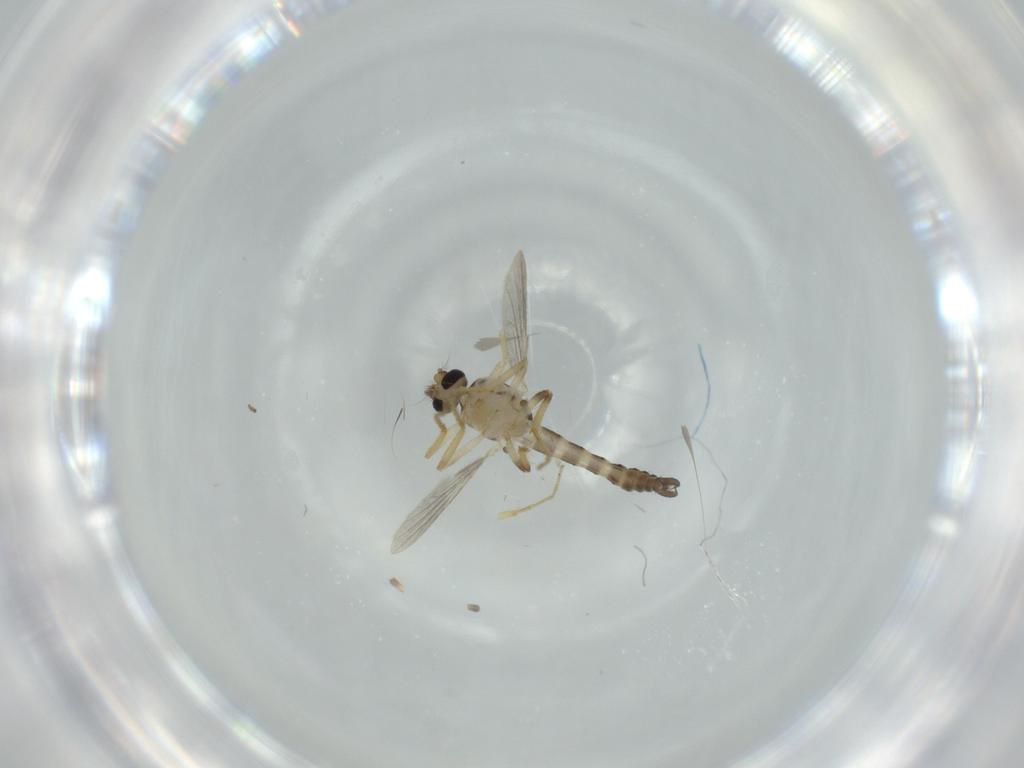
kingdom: Animalia
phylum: Arthropoda
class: Insecta
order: Diptera
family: Ceratopogonidae
